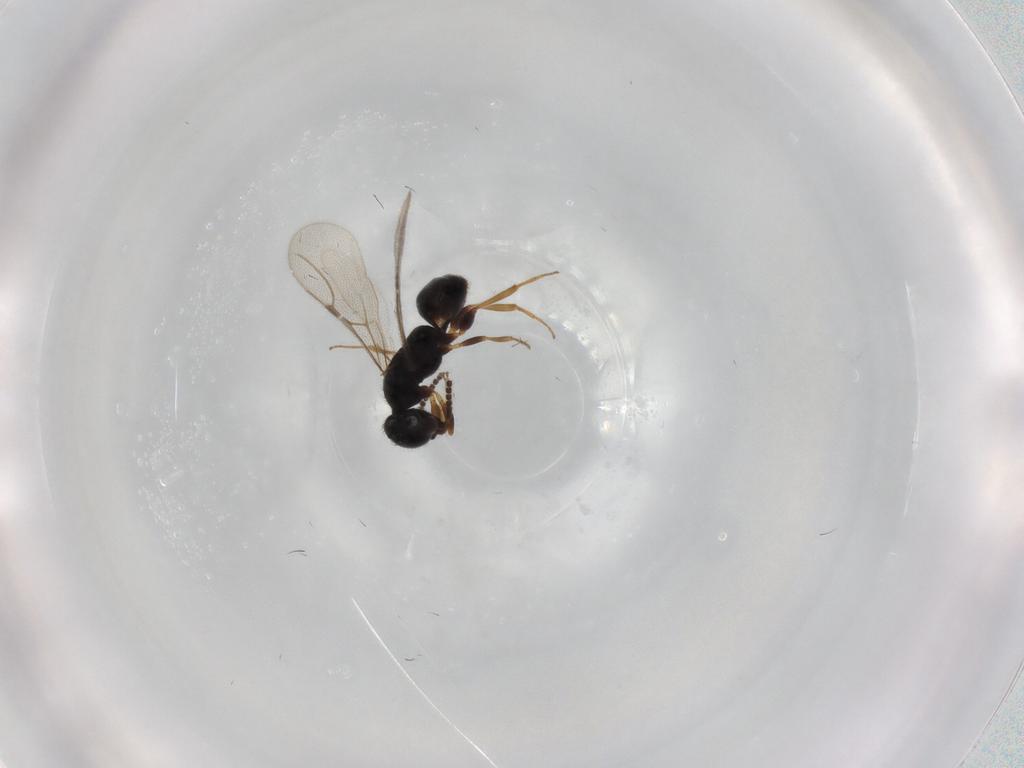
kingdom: Animalia
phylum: Arthropoda
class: Insecta
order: Hymenoptera
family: Bethylidae
